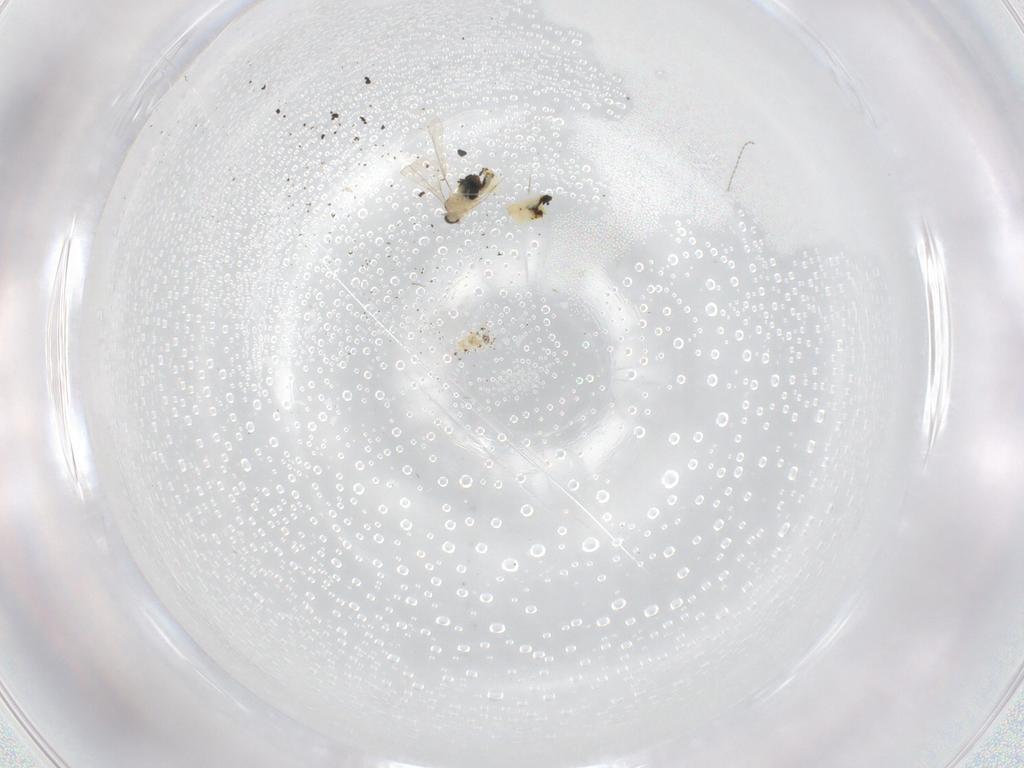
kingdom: Animalia
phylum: Arthropoda
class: Insecta
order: Diptera
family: Cecidomyiidae
